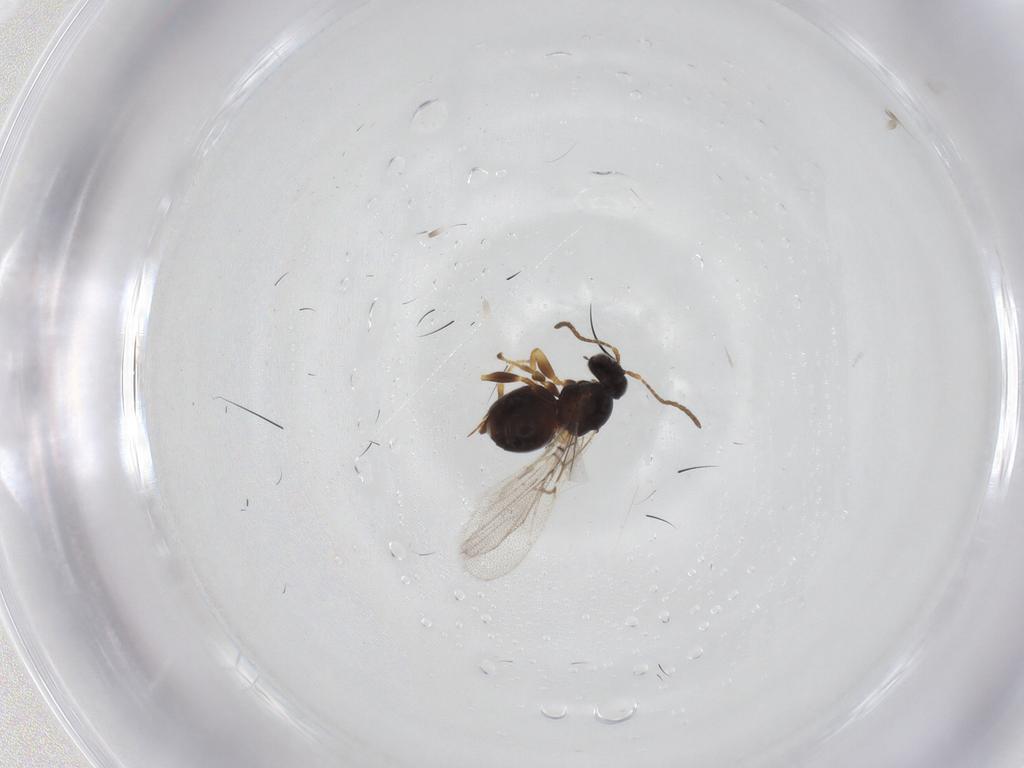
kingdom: Animalia
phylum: Arthropoda
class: Insecta
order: Hymenoptera
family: Cynipidae
